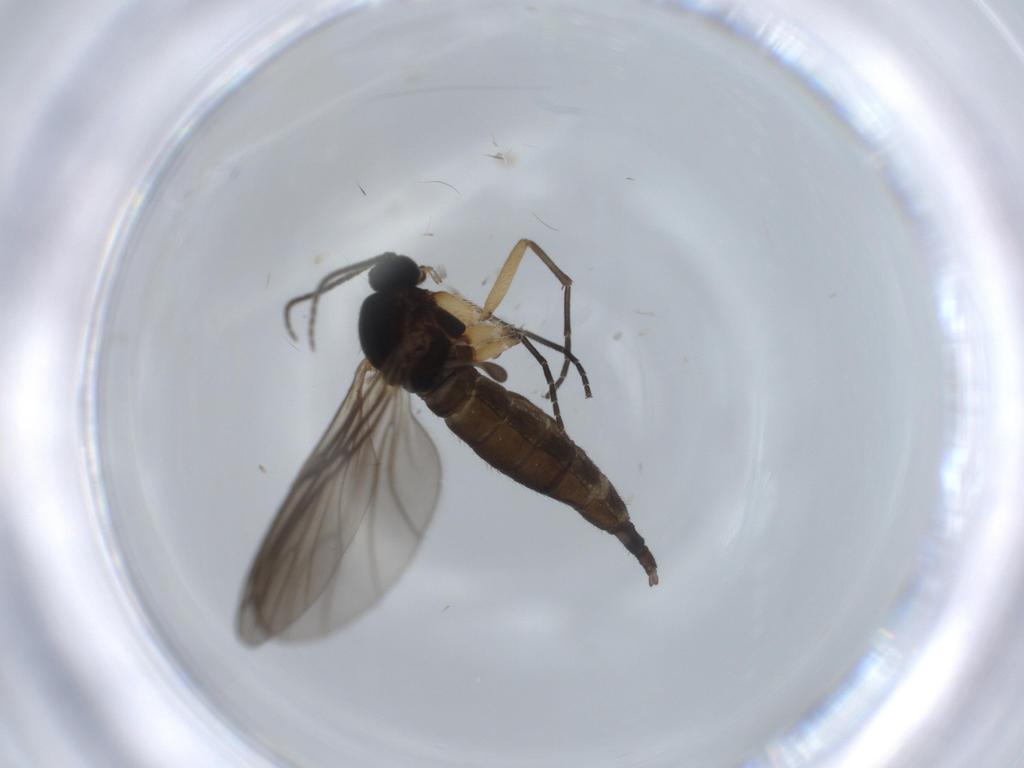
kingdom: Animalia
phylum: Arthropoda
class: Insecta
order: Diptera
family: Sciaridae
